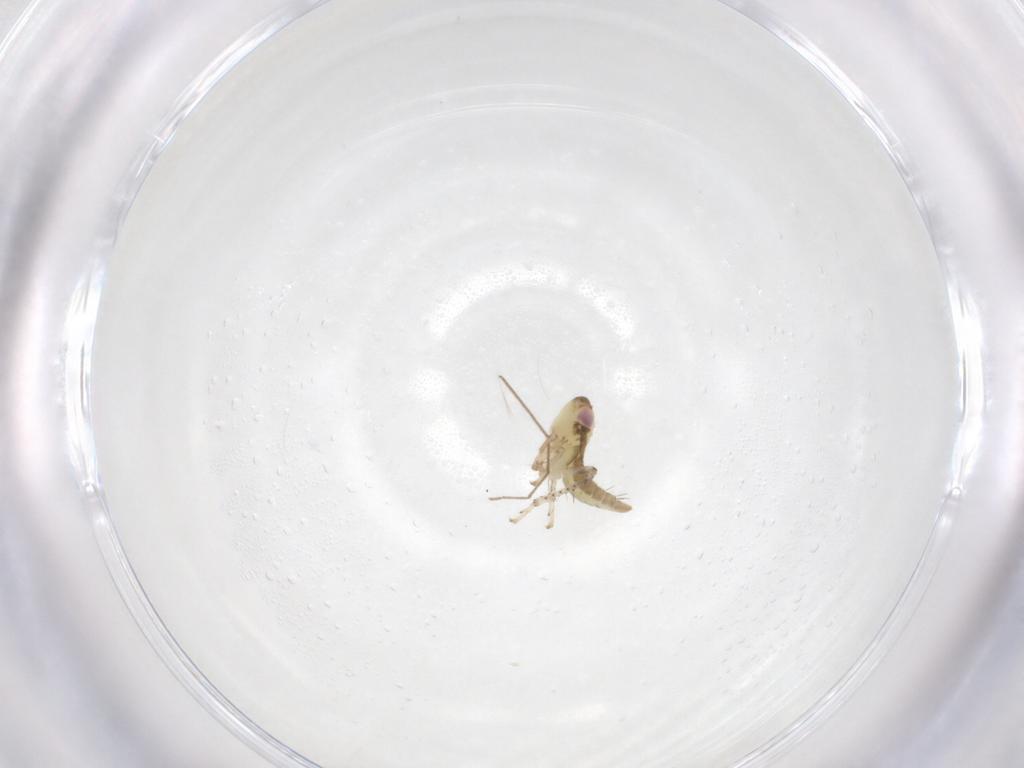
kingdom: Animalia
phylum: Arthropoda
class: Insecta
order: Hemiptera
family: Cicadellidae
